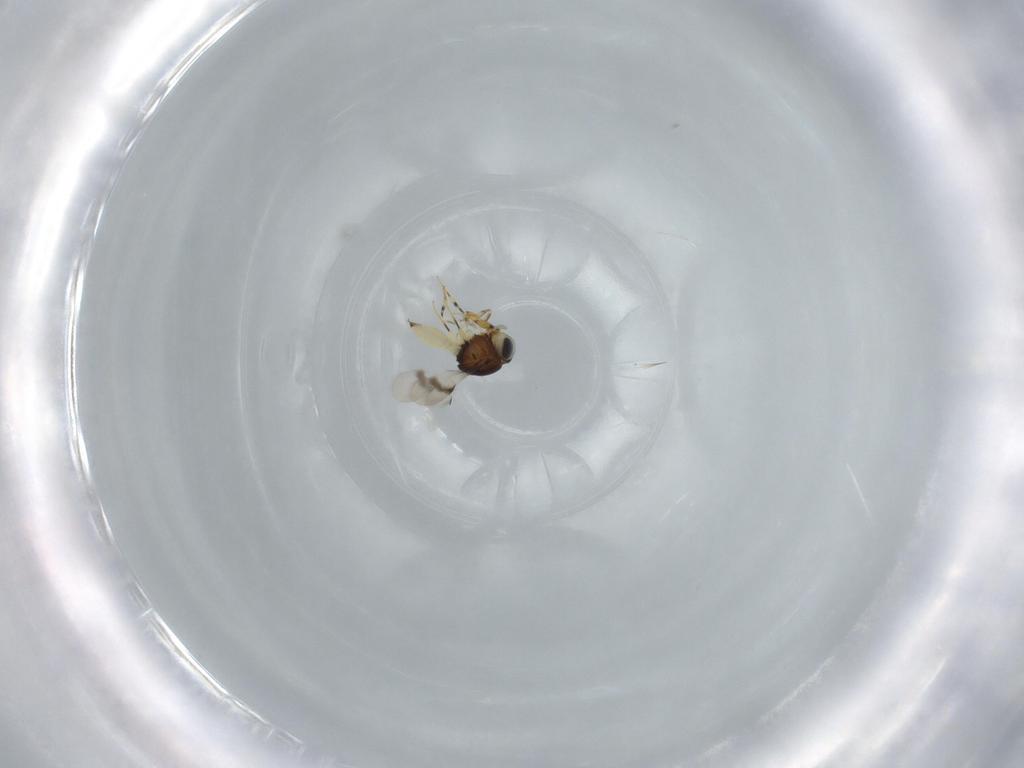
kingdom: Animalia
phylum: Arthropoda
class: Insecta
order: Hymenoptera
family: Scelionidae
